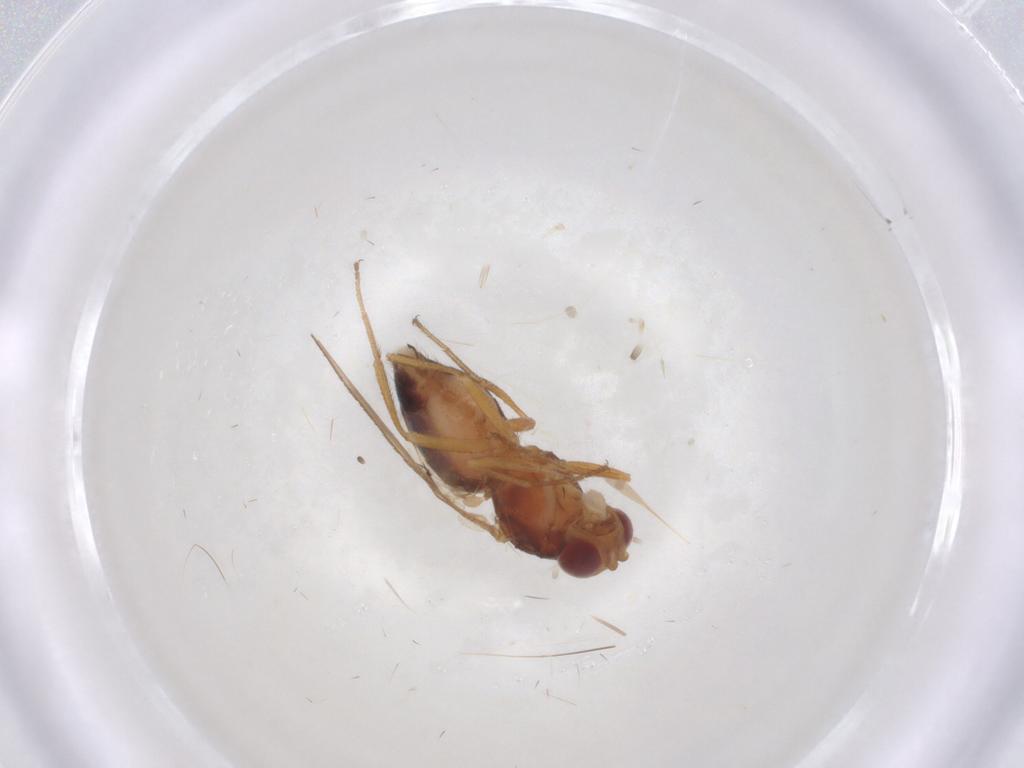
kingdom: Animalia
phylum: Arthropoda
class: Insecta
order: Diptera
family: Drosophilidae
